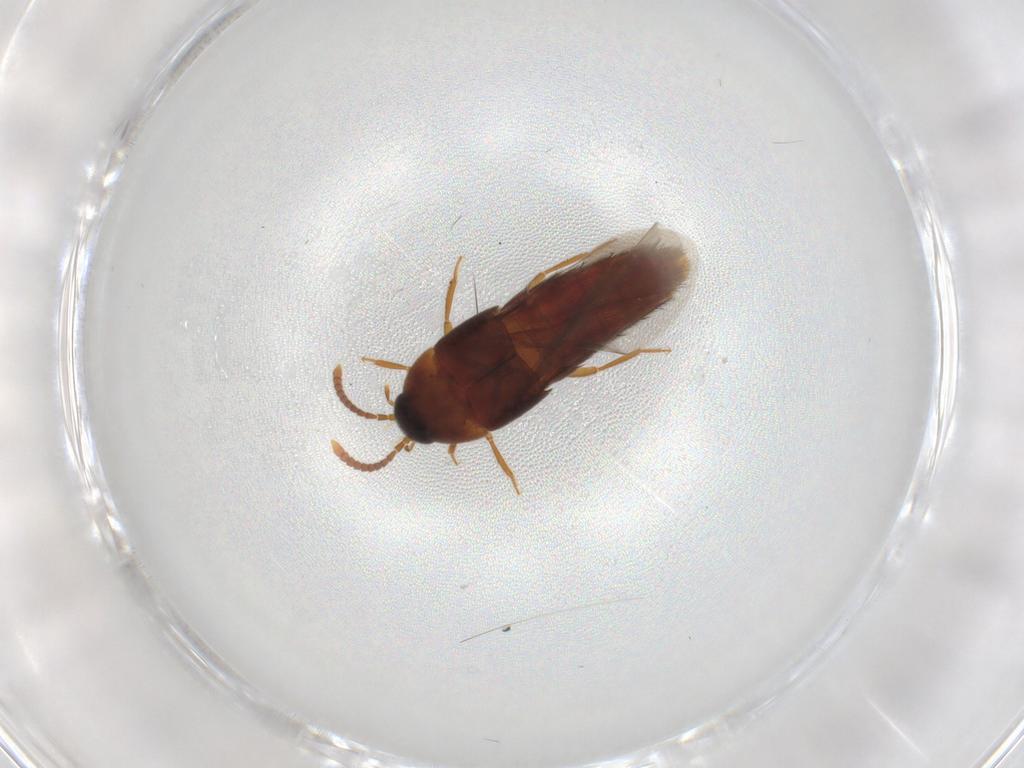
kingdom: Animalia
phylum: Arthropoda
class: Insecta
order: Coleoptera
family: Staphylinidae
